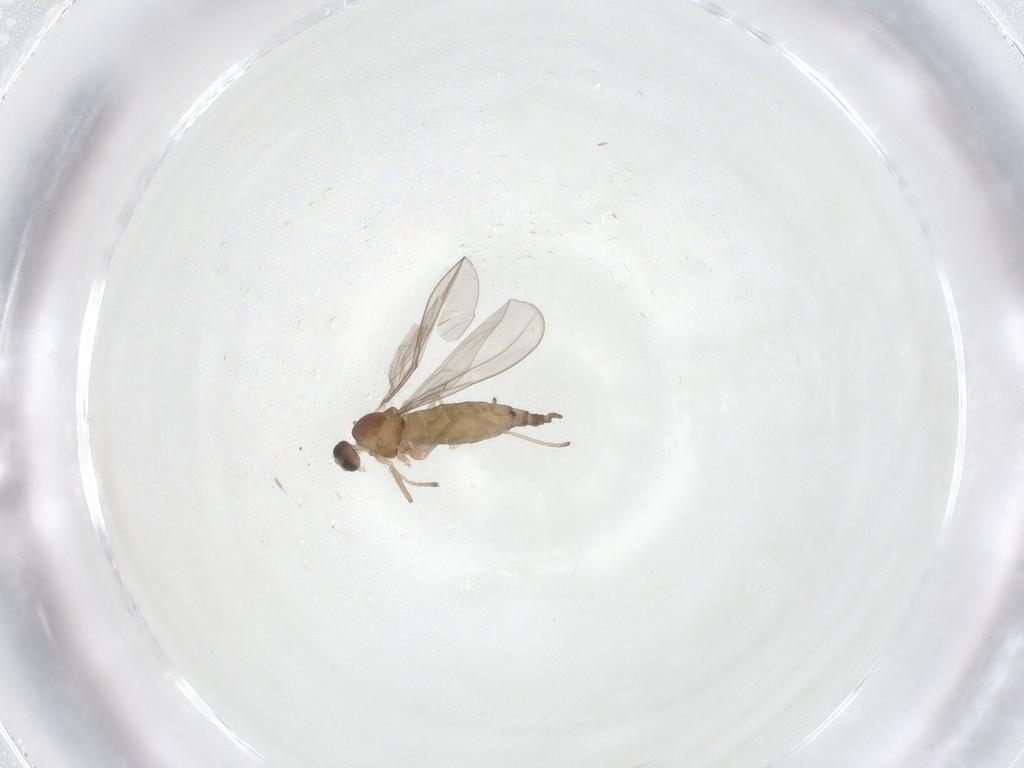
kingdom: Animalia
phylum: Arthropoda
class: Insecta
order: Diptera
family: Cecidomyiidae
